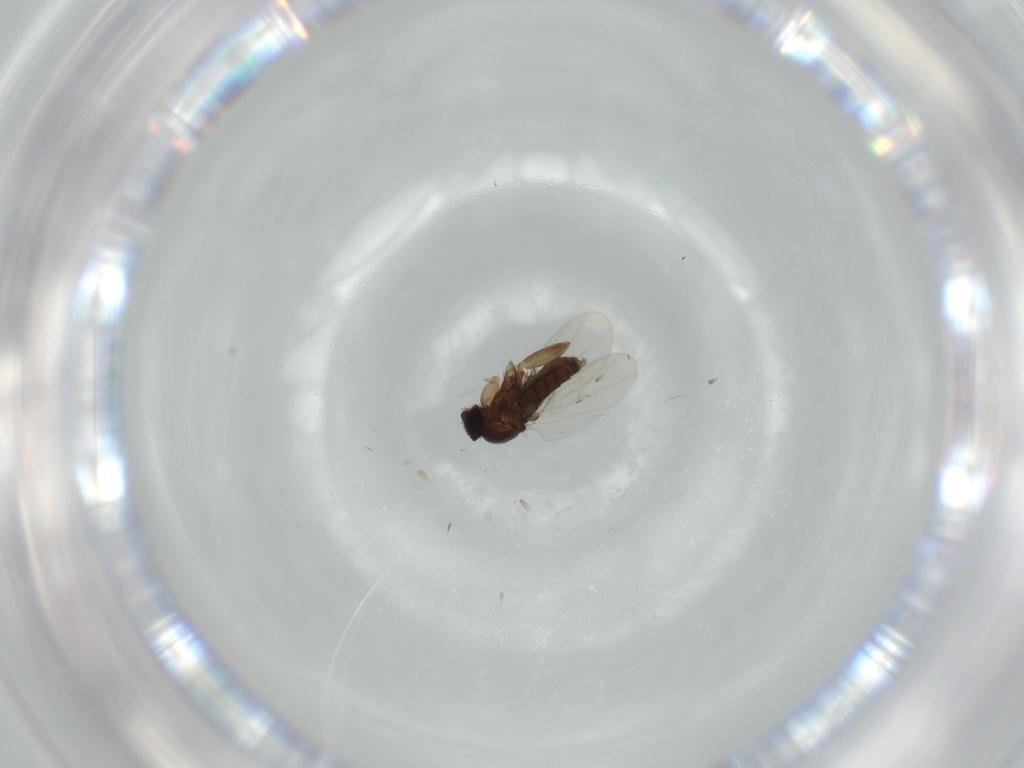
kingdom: Animalia
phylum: Arthropoda
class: Insecta
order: Diptera
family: Phoridae
